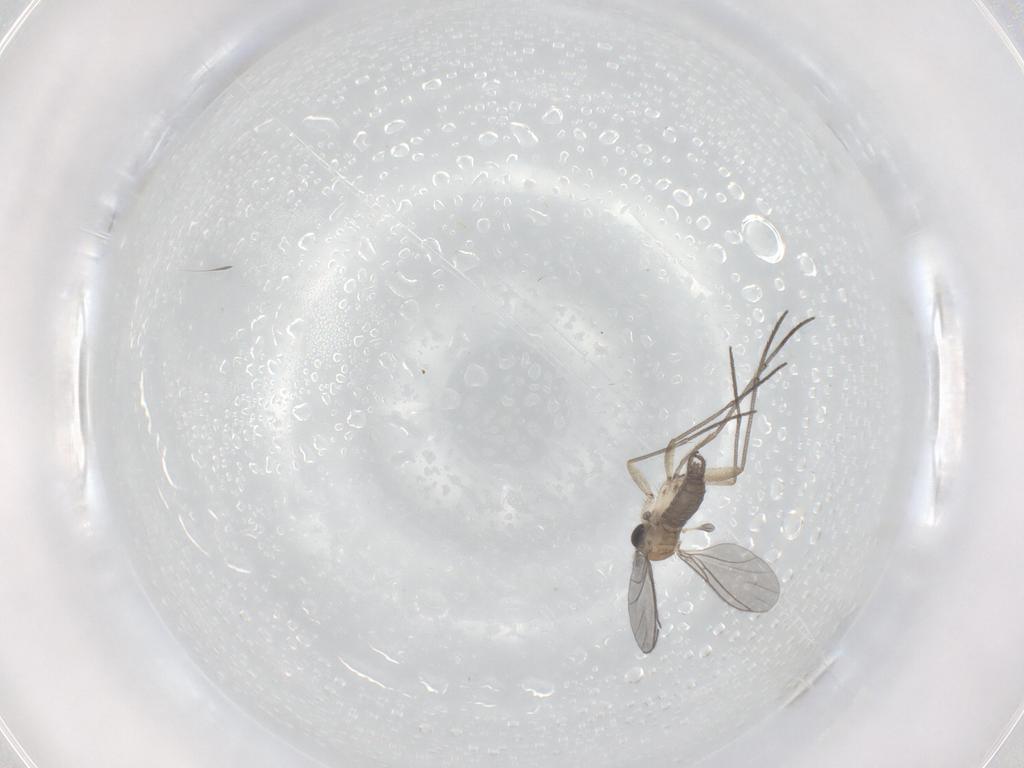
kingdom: Animalia
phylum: Arthropoda
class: Insecta
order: Diptera
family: Sciaridae
